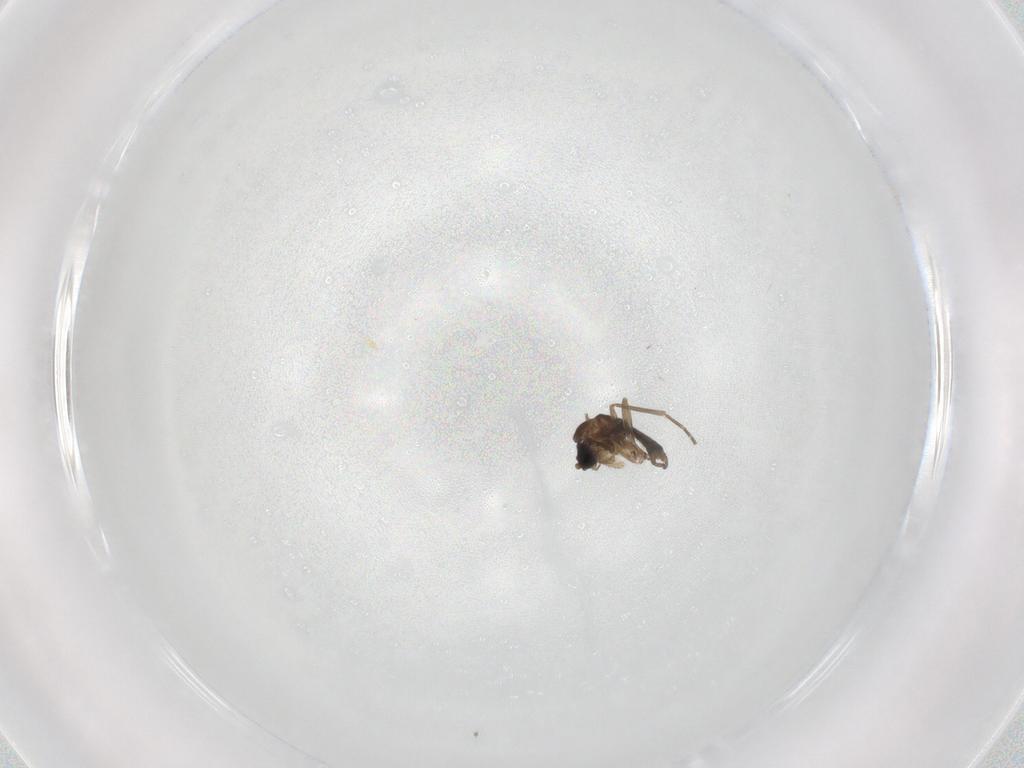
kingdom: Animalia
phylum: Arthropoda
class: Insecta
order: Diptera
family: Sciaridae
